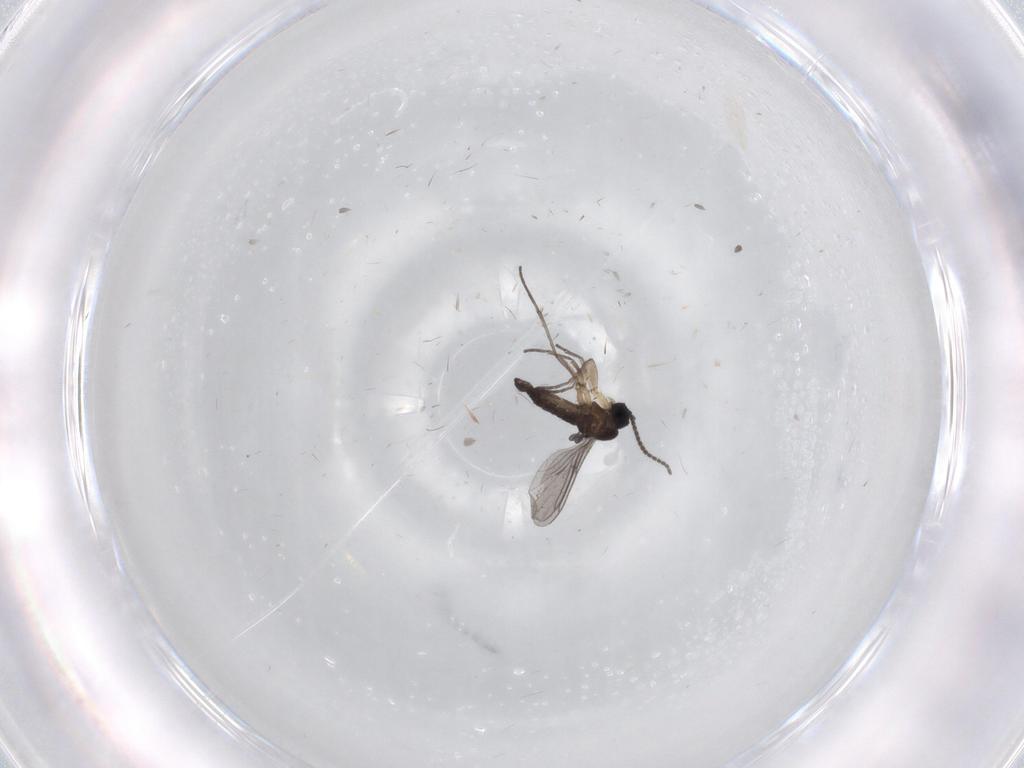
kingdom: Animalia
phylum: Arthropoda
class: Insecta
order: Diptera
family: Sciaridae
